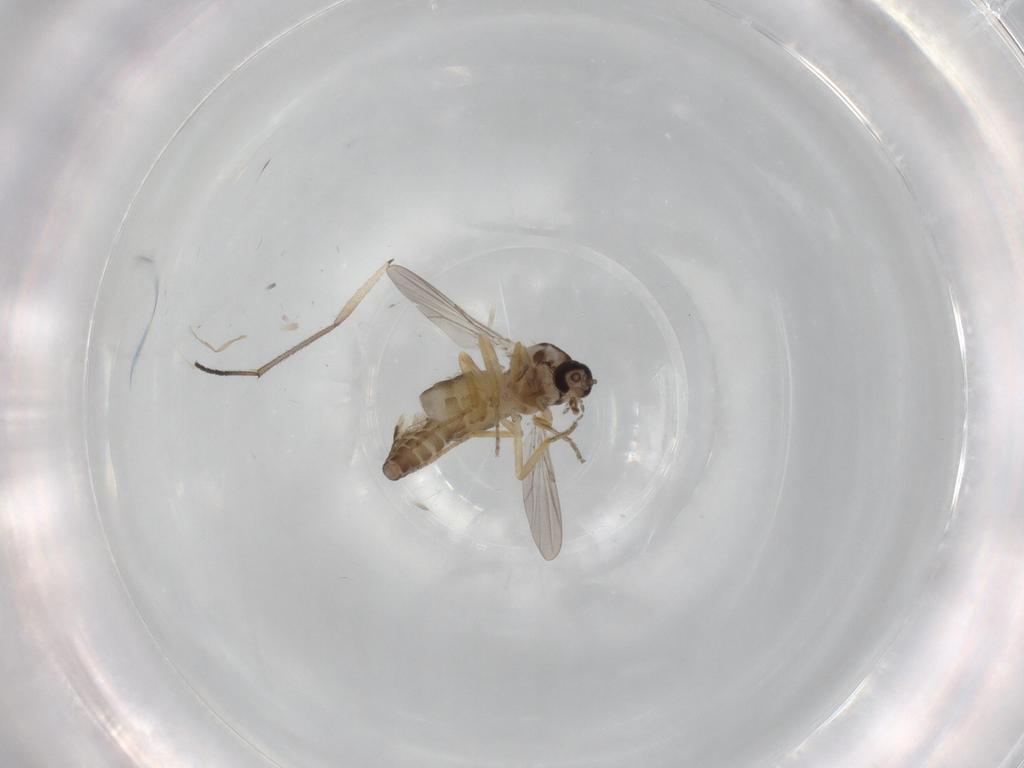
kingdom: Animalia
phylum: Arthropoda
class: Insecta
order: Diptera
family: Ceratopogonidae
